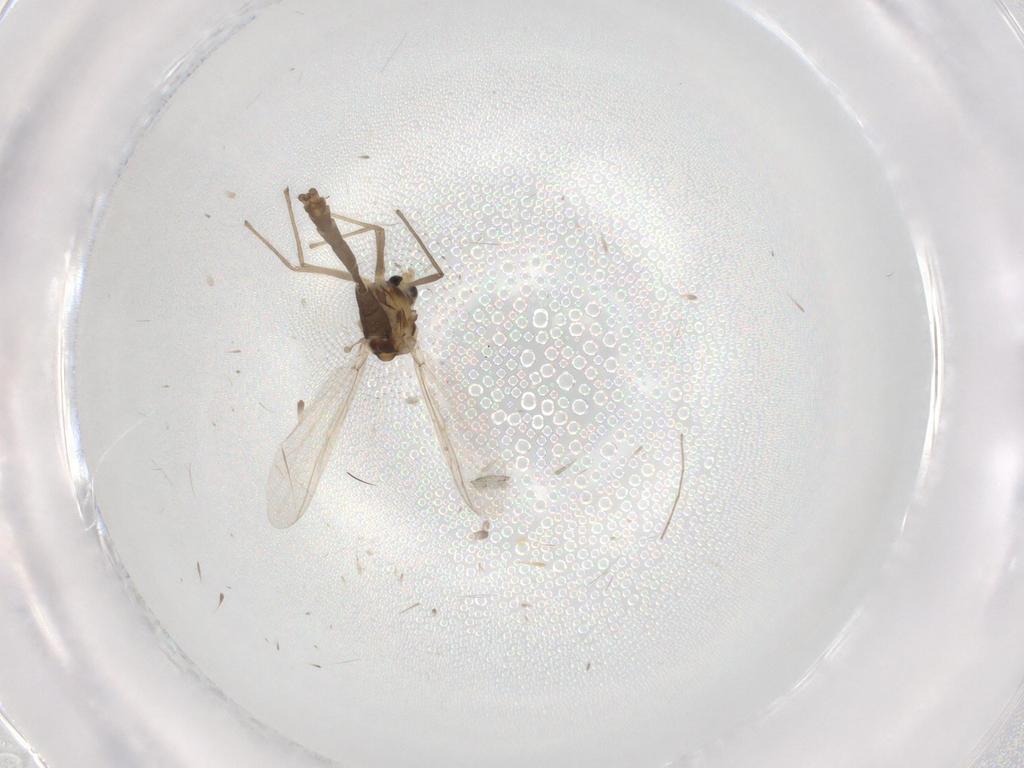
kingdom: Animalia
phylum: Arthropoda
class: Insecta
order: Diptera
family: Chironomidae
